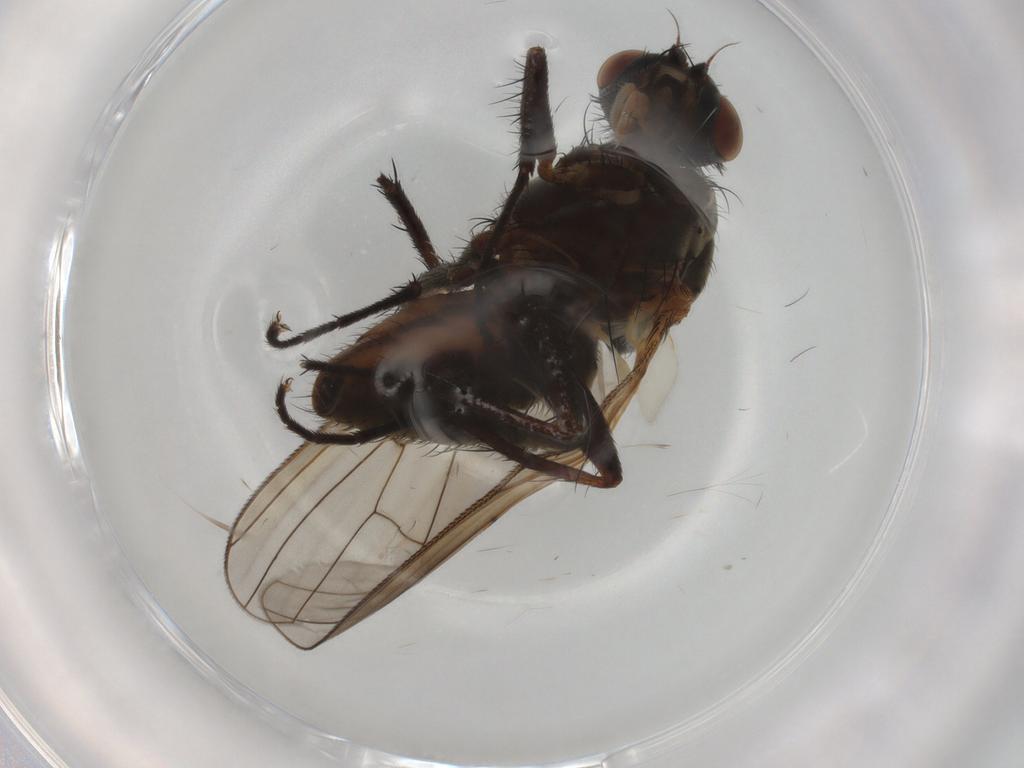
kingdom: Animalia
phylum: Arthropoda
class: Insecta
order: Diptera
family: Anthomyiidae
